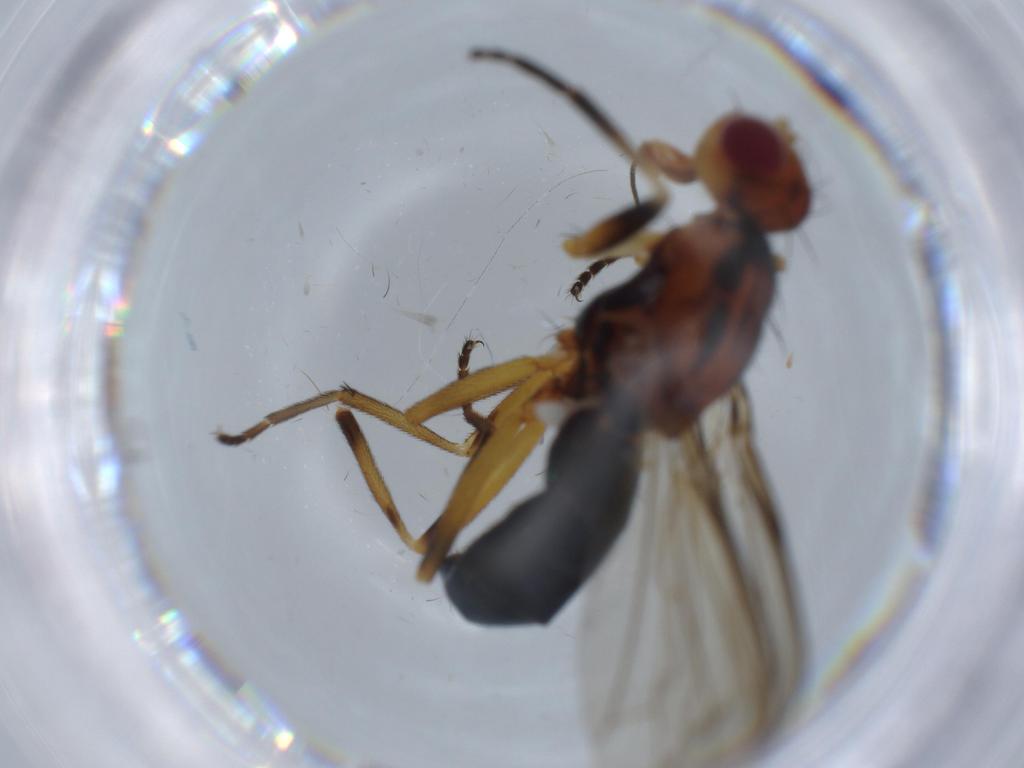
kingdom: Animalia
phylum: Arthropoda
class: Insecta
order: Diptera
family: Piophilidae
